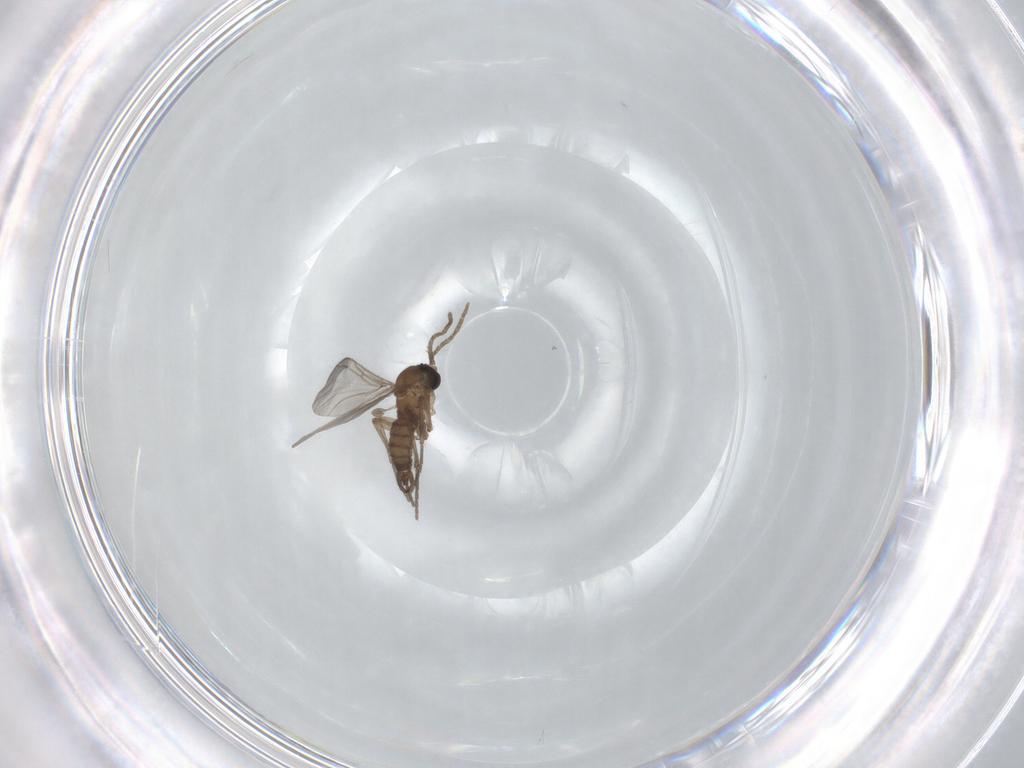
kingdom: Animalia
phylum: Arthropoda
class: Insecta
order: Diptera
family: Sciaridae
